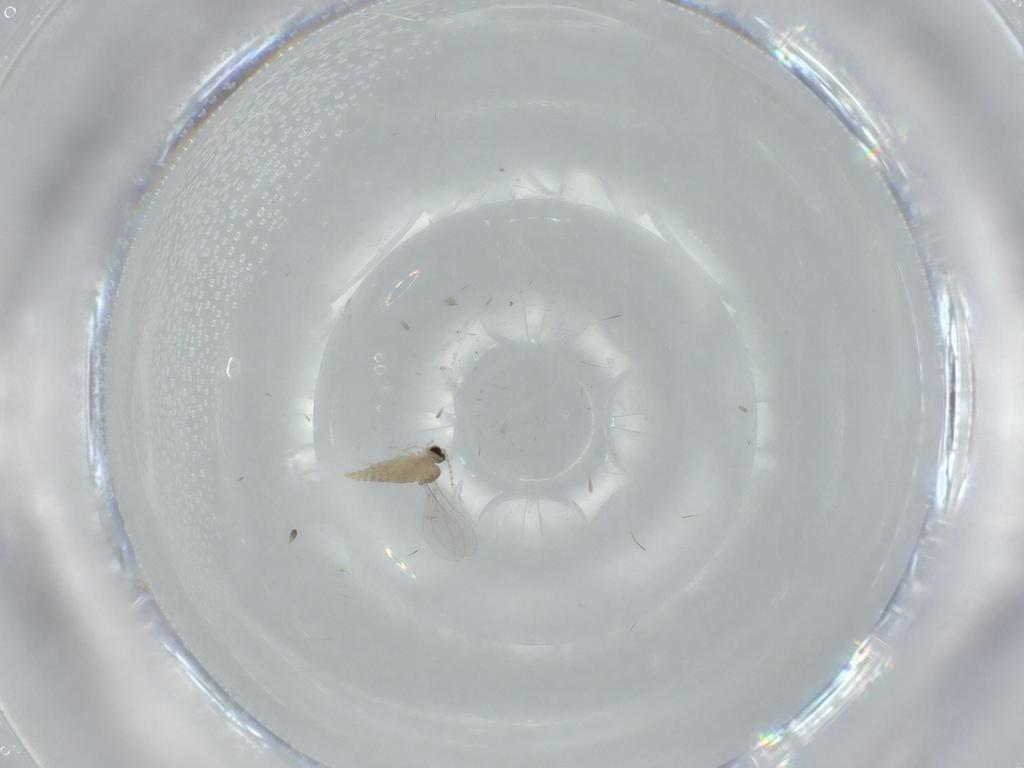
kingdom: Animalia
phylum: Arthropoda
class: Insecta
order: Diptera
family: Cecidomyiidae
